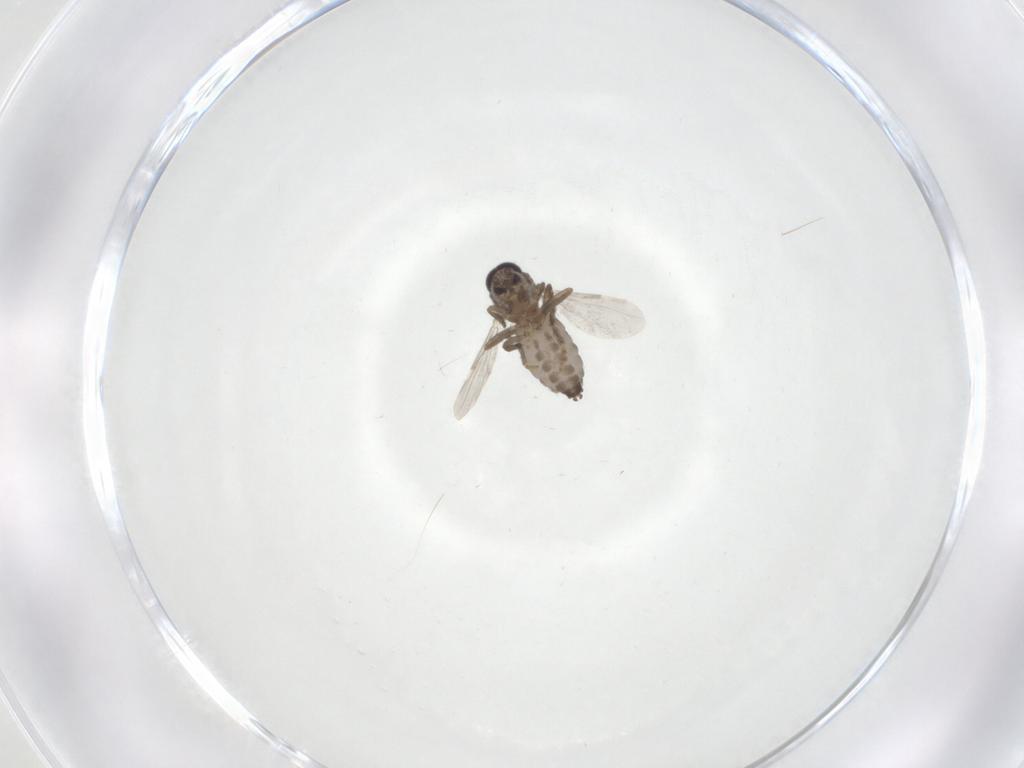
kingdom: Animalia
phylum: Arthropoda
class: Insecta
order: Diptera
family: Ceratopogonidae
